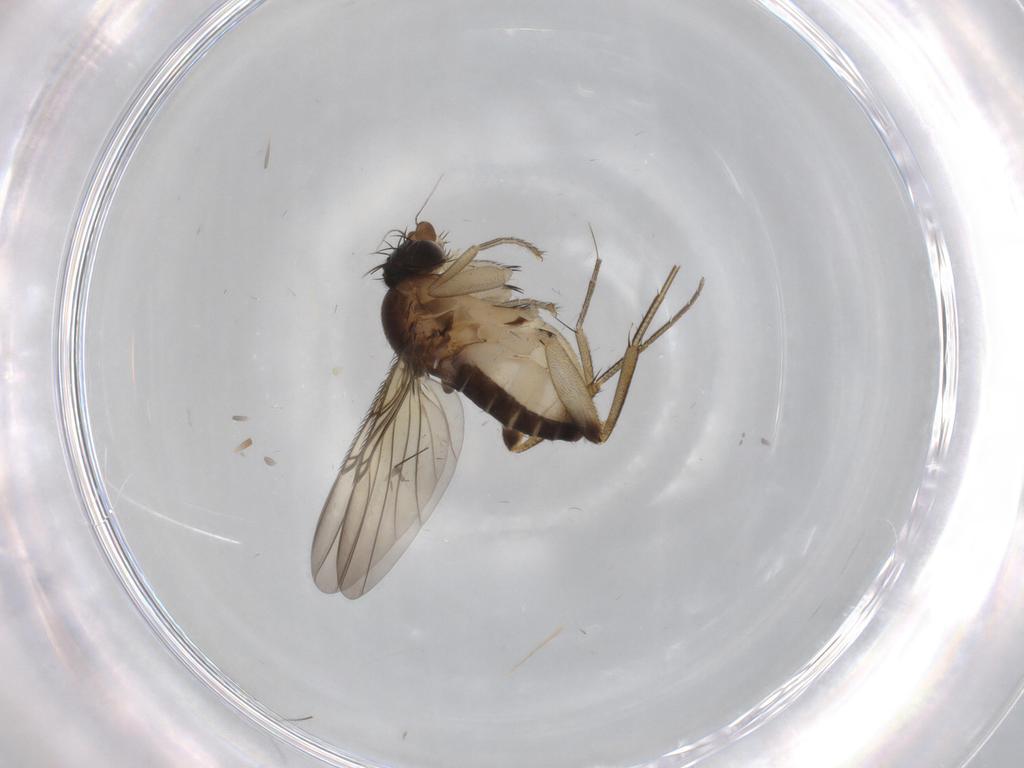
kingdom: Animalia
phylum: Arthropoda
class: Insecta
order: Diptera
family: Phoridae
